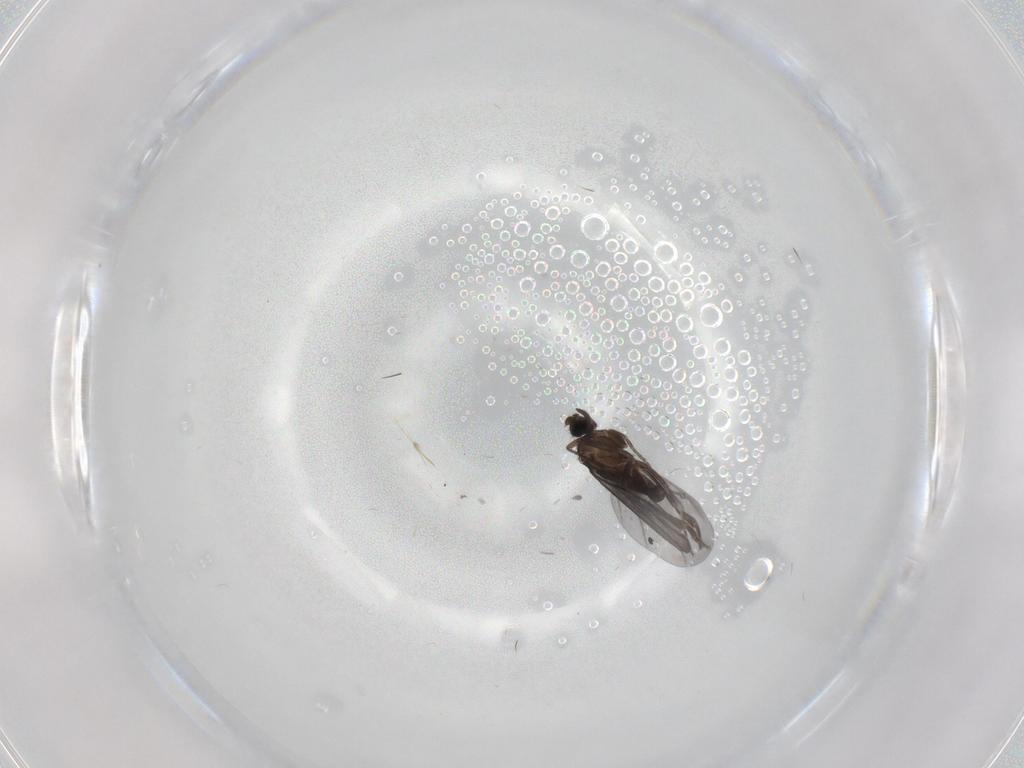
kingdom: Animalia
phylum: Arthropoda
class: Insecta
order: Diptera
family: Phoridae
